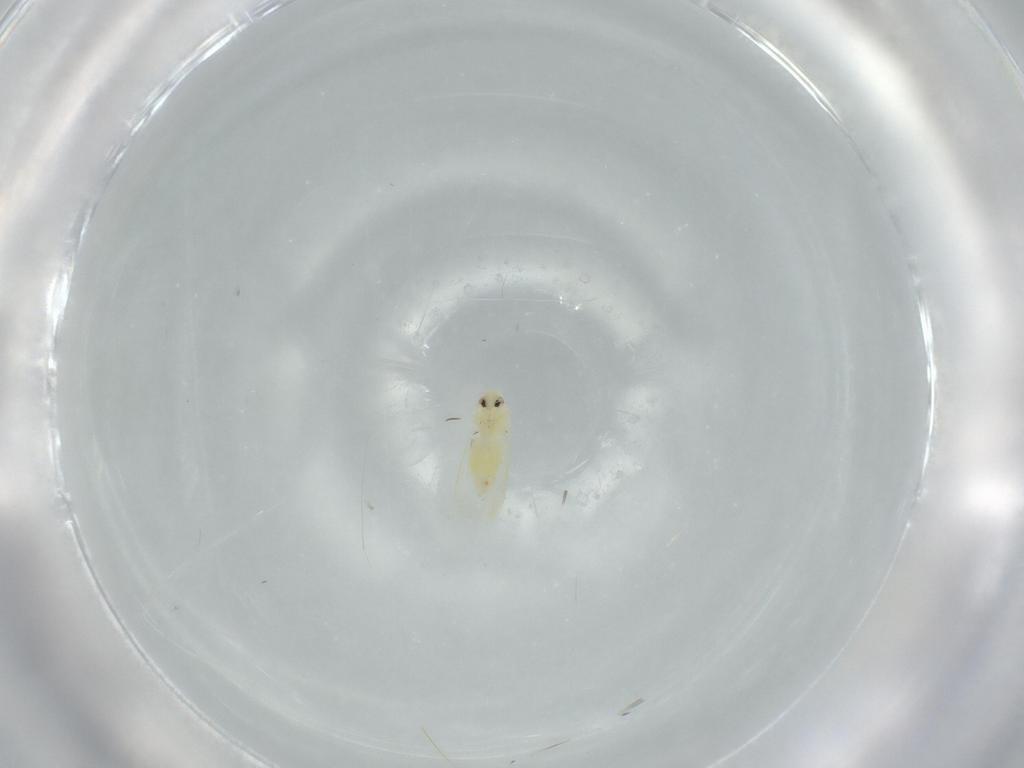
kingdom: Animalia
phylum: Arthropoda
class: Insecta
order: Hemiptera
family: Aleyrodidae
